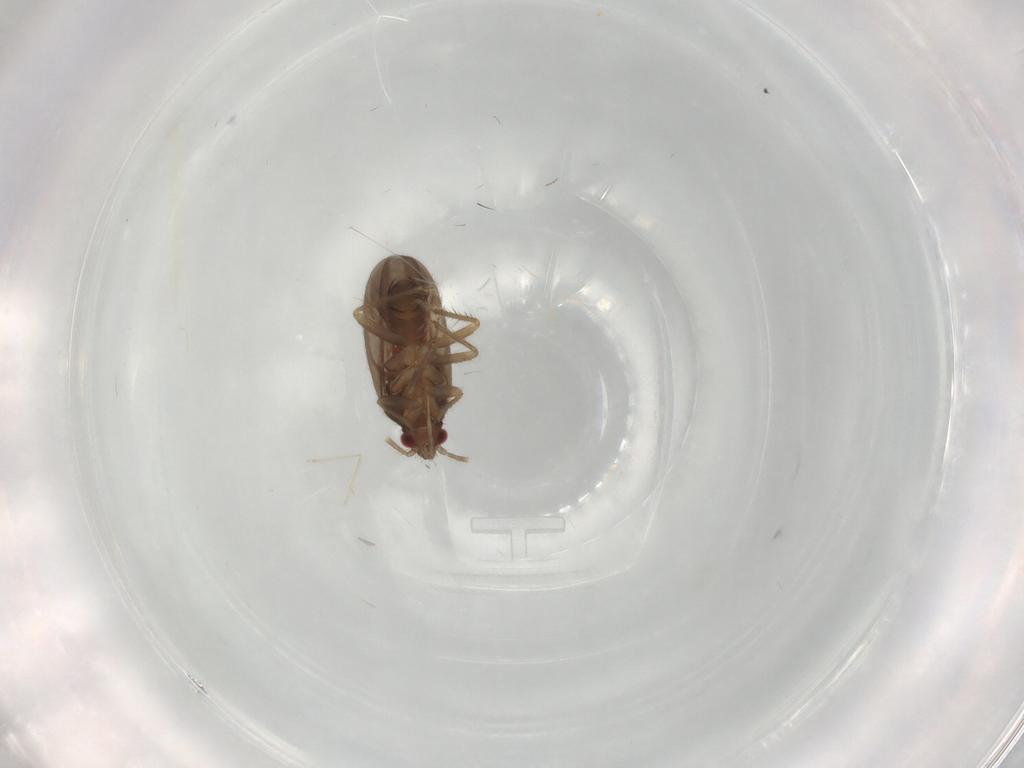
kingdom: Animalia
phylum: Arthropoda
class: Insecta
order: Hemiptera
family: Ceratocombidae
